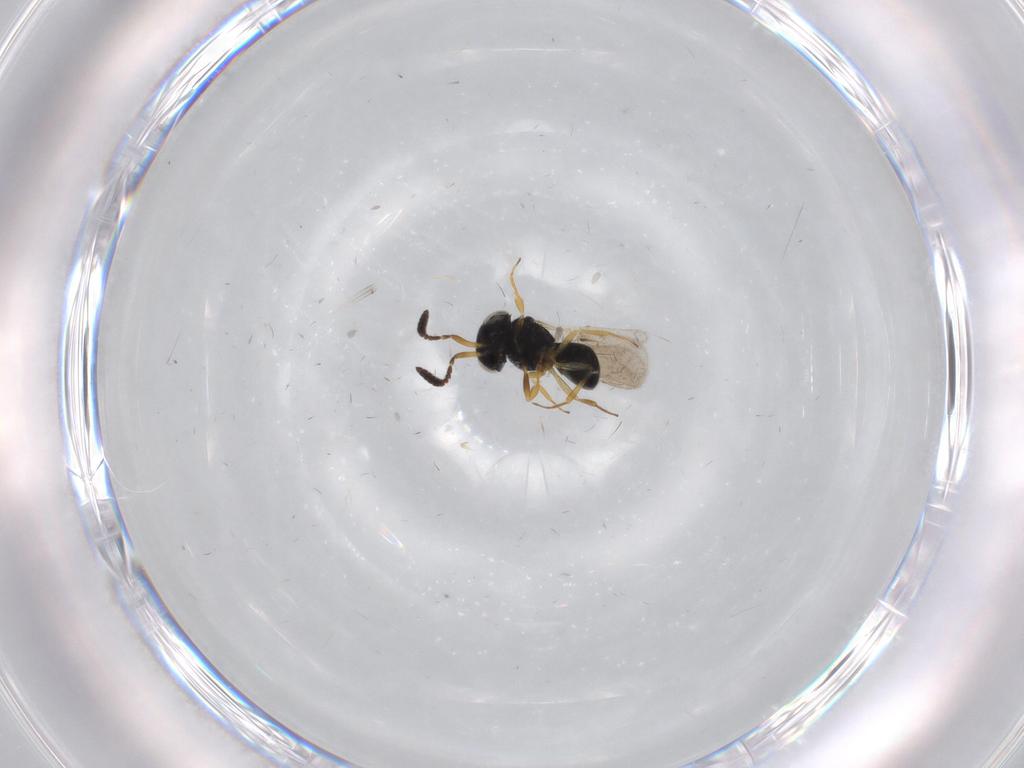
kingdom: Animalia
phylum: Arthropoda
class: Insecta
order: Hymenoptera
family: Scelionidae
